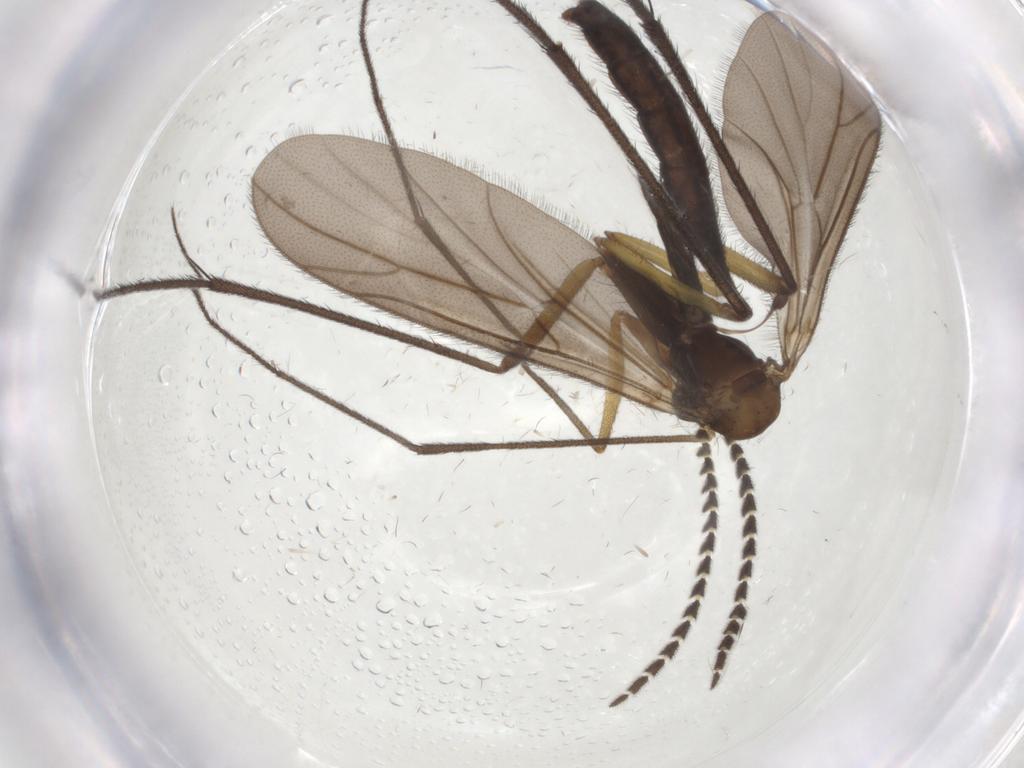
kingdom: Animalia
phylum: Arthropoda
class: Insecta
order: Diptera
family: Ditomyiidae
